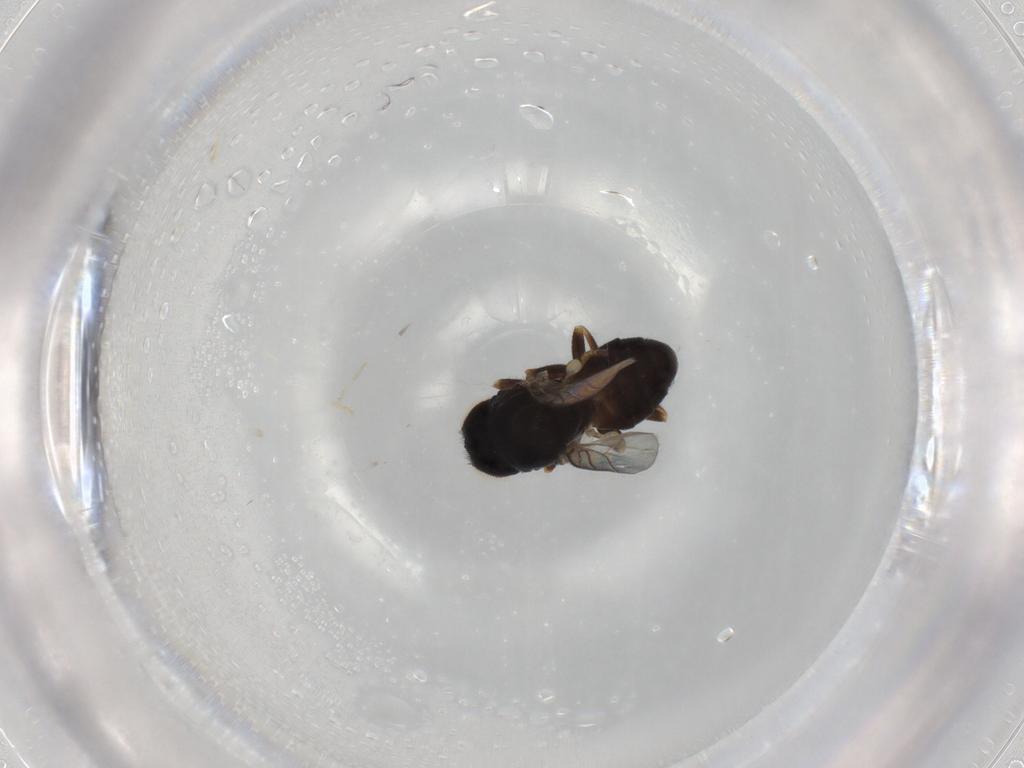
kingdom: Animalia
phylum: Arthropoda
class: Insecta
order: Diptera
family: Chloropidae
